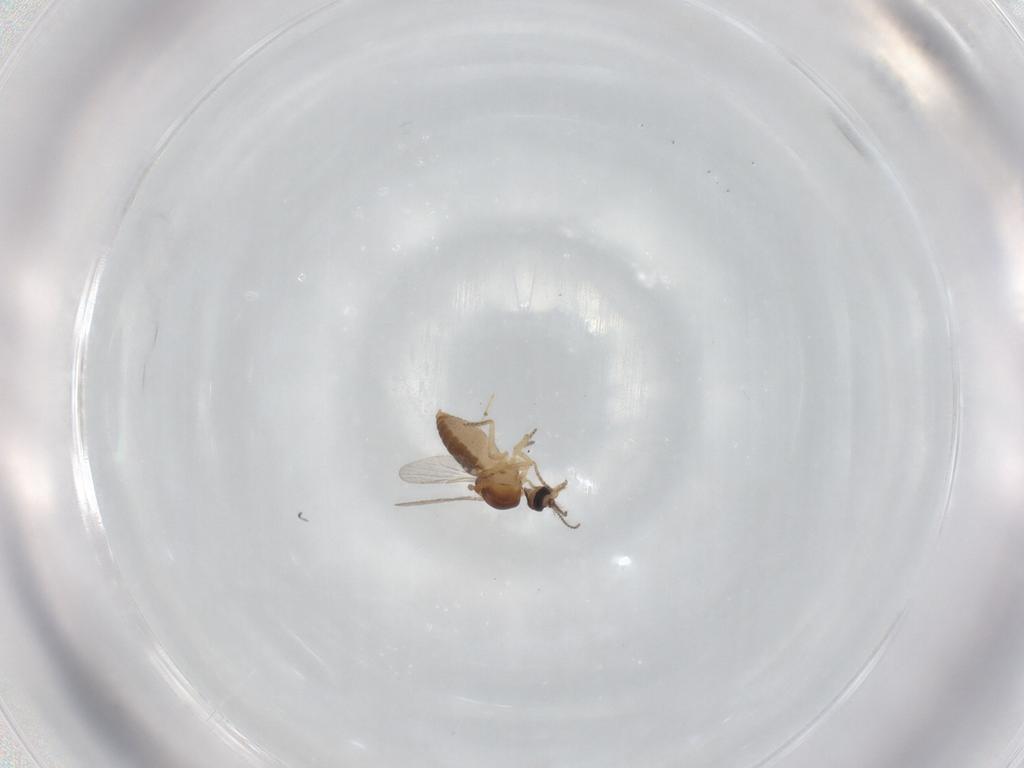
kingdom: Animalia
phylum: Arthropoda
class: Insecta
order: Diptera
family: Ceratopogonidae
